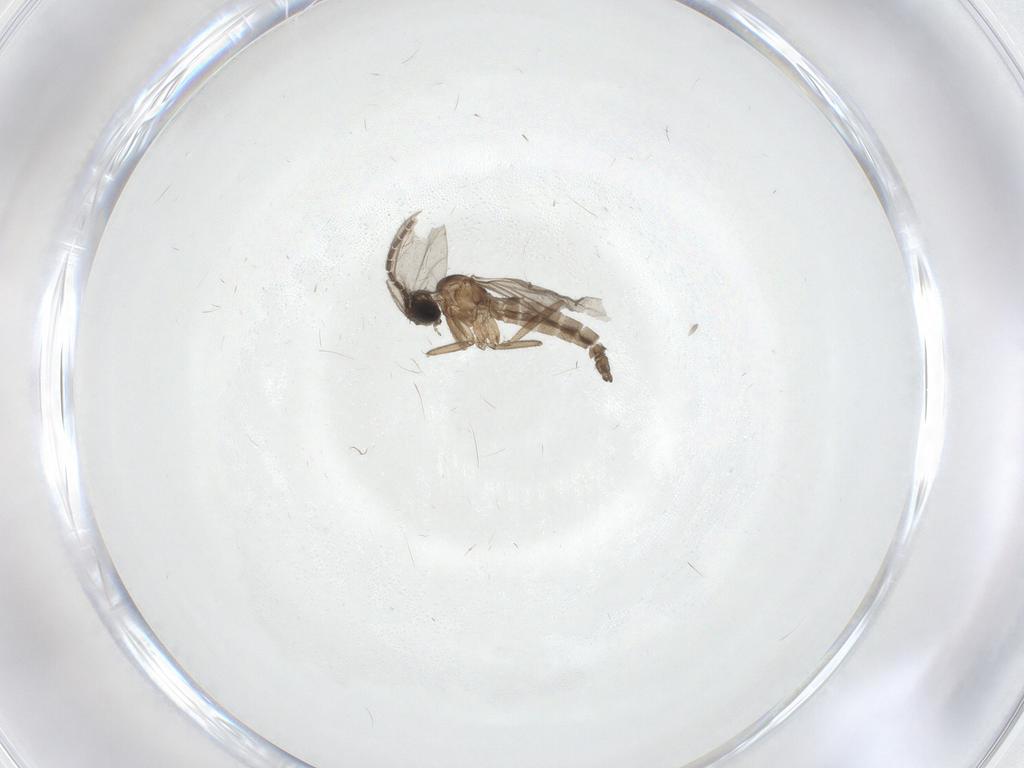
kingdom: Animalia
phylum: Arthropoda
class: Insecta
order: Diptera
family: Sciaridae
